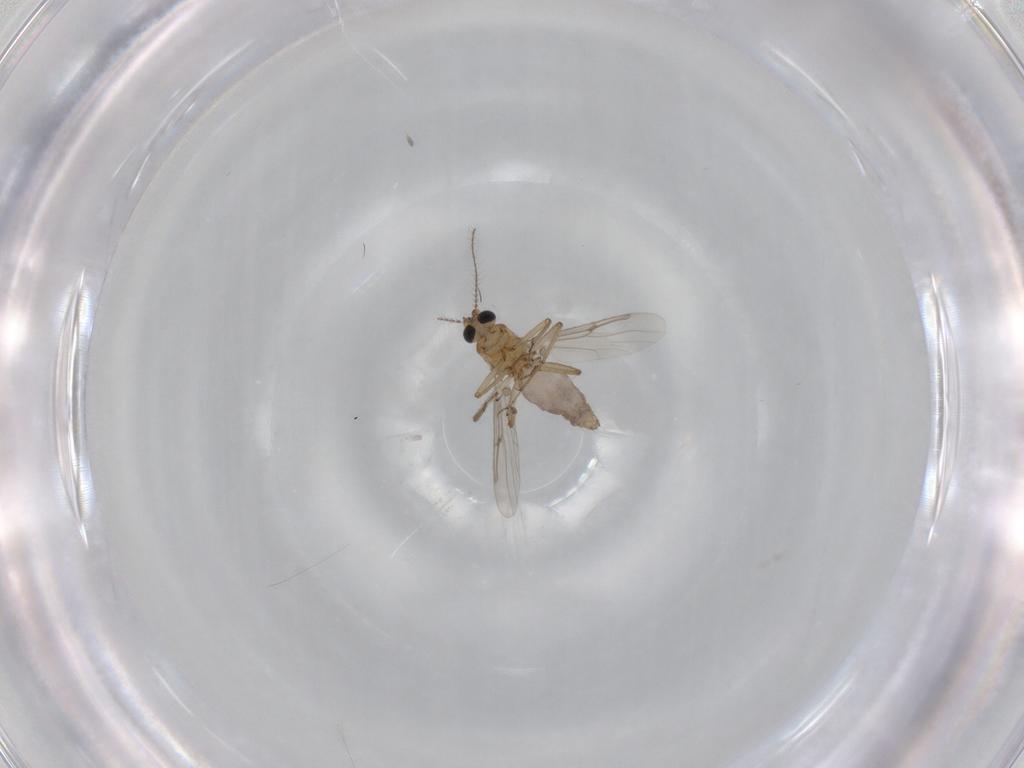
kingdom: Animalia
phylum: Arthropoda
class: Insecta
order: Diptera
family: Ceratopogonidae
